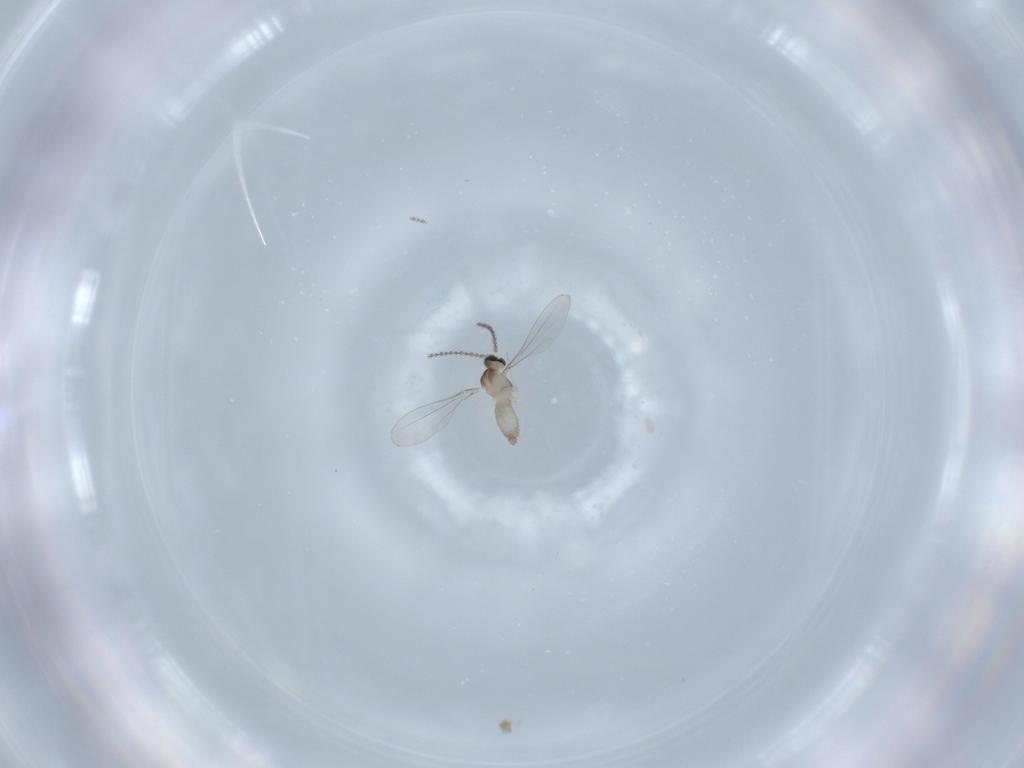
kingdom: Animalia
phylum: Arthropoda
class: Insecta
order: Diptera
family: Cecidomyiidae
